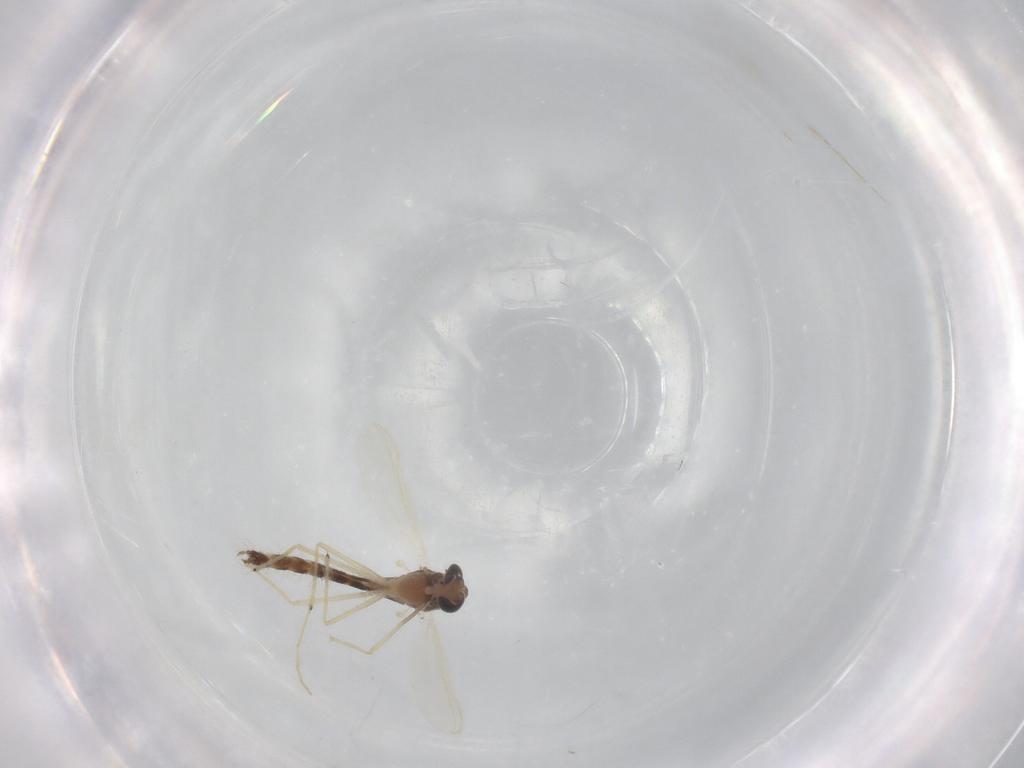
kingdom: Animalia
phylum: Arthropoda
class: Insecta
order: Diptera
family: Chironomidae
